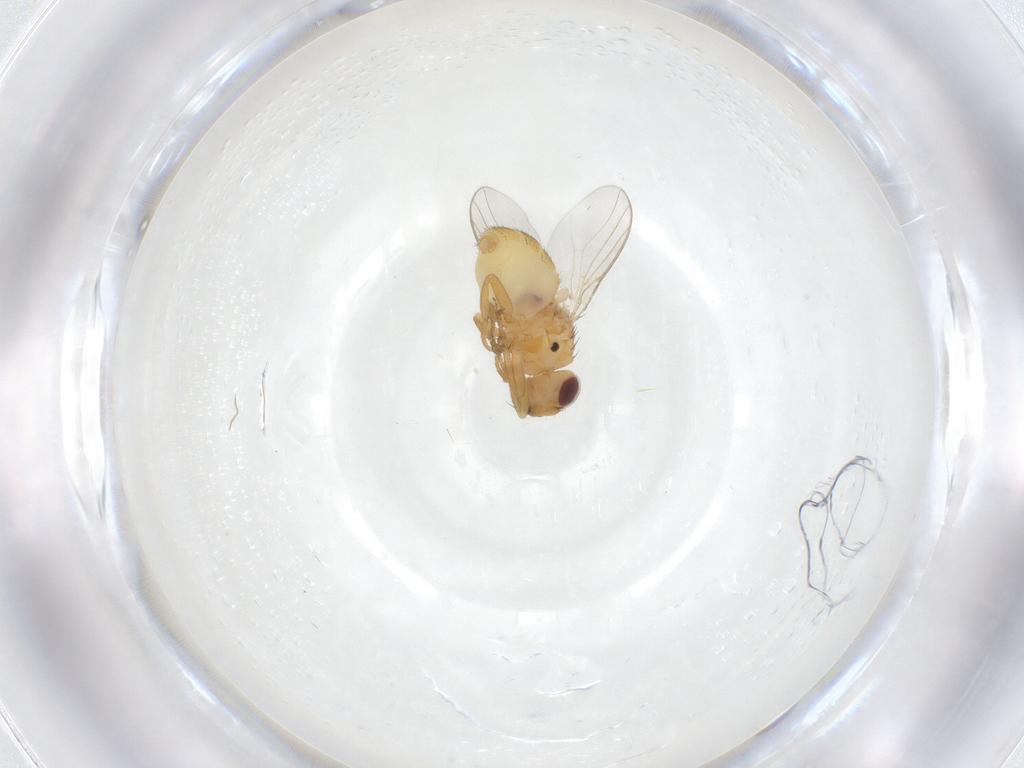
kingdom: Animalia
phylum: Arthropoda
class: Insecta
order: Diptera
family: Chloropidae
